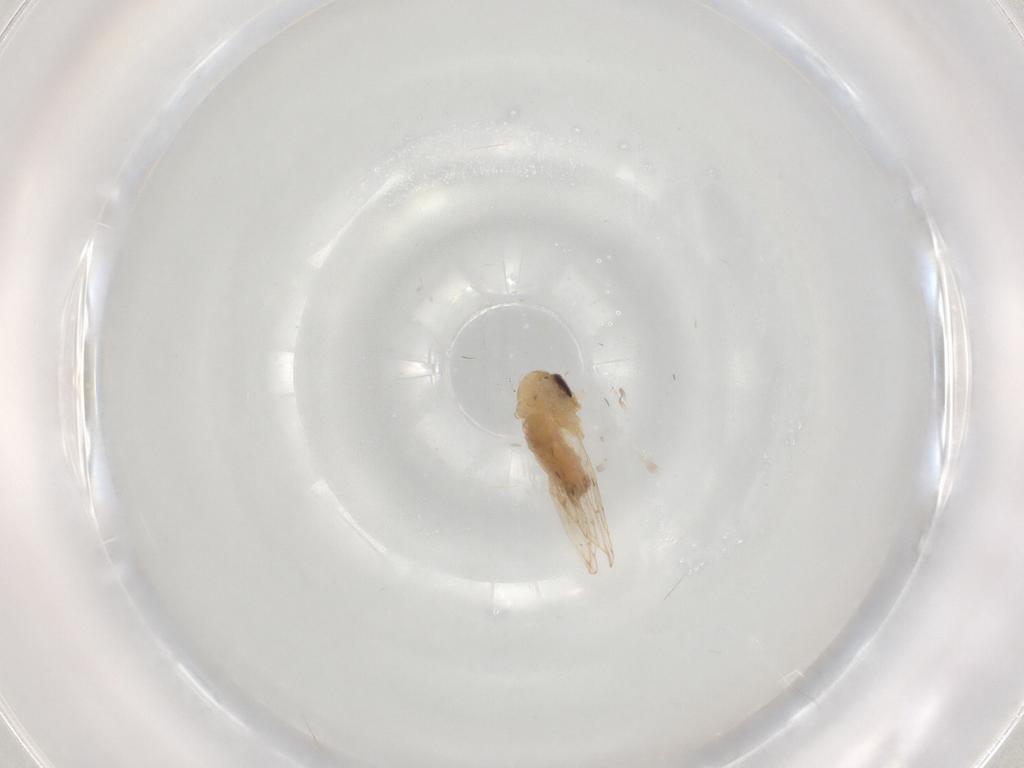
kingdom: Animalia
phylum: Arthropoda
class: Insecta
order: Diptera
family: Psychodidae
